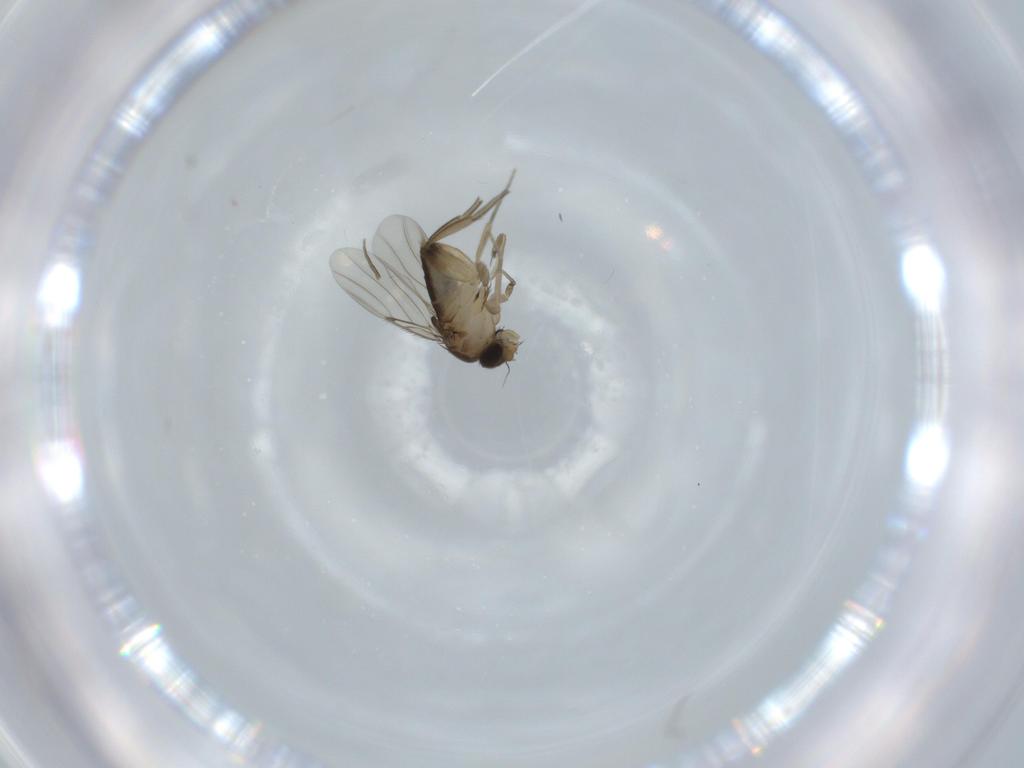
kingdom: Animalia
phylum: Arthropoda
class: Insecta
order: Diptera
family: Phoridae
